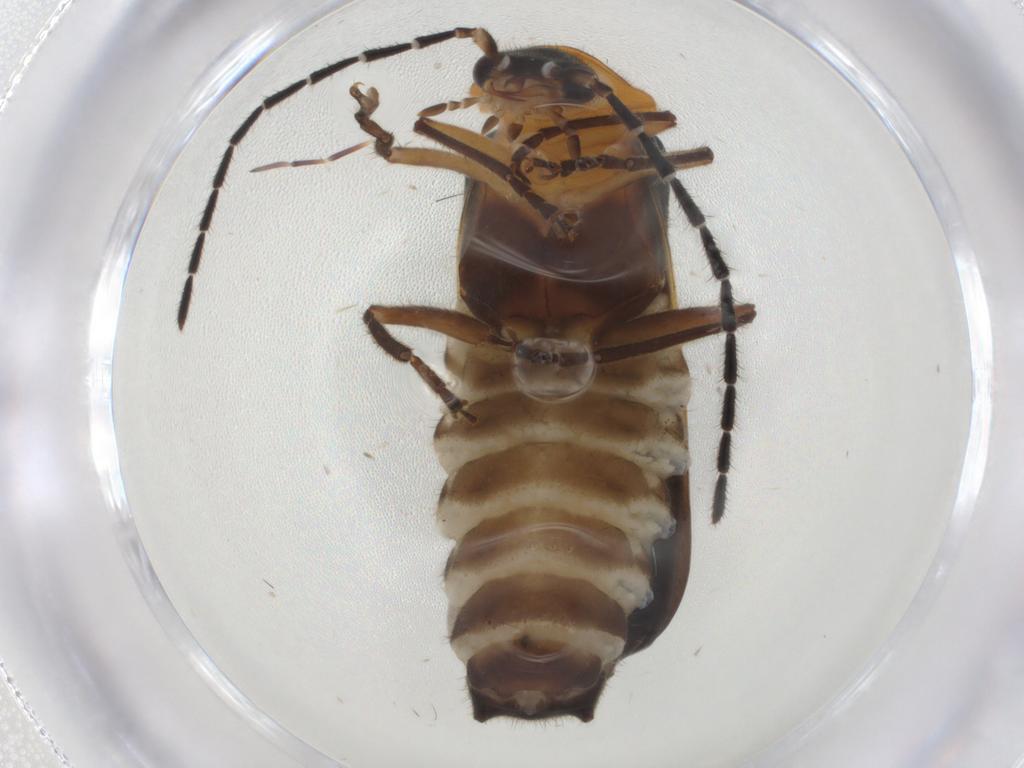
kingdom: Animalia
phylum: Arthropoda
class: Insecta
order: Coleoptera
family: Cantharidae
